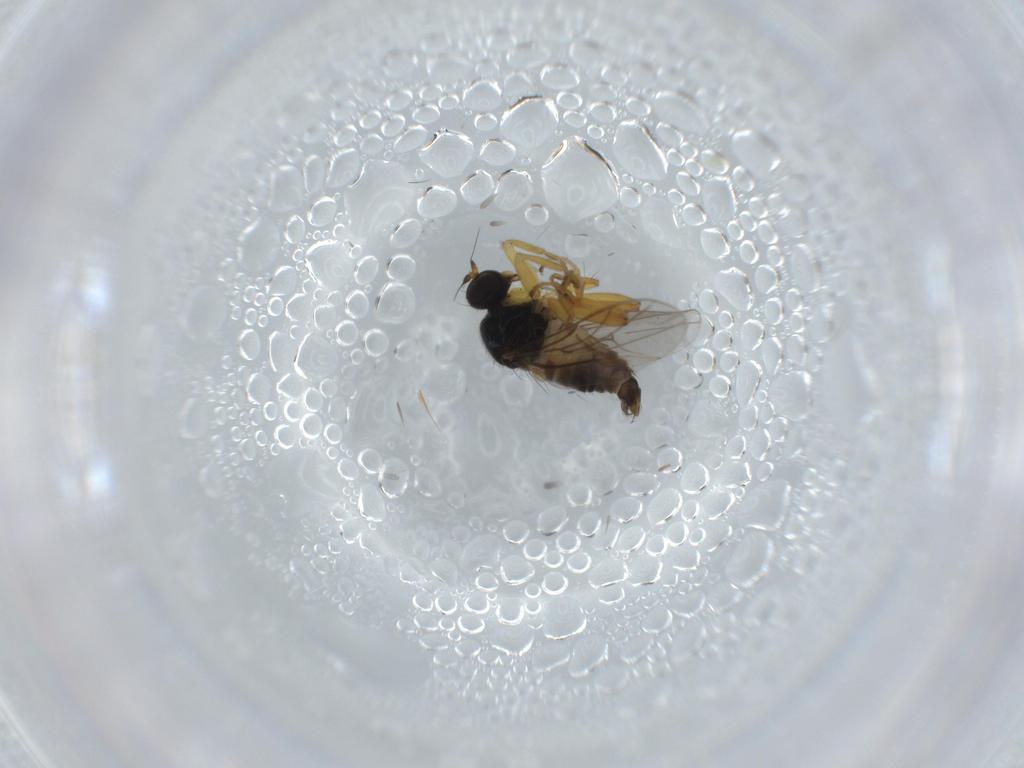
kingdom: Animalia
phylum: Arthropoda
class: Insecta
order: Diptera
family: Hybotidae
